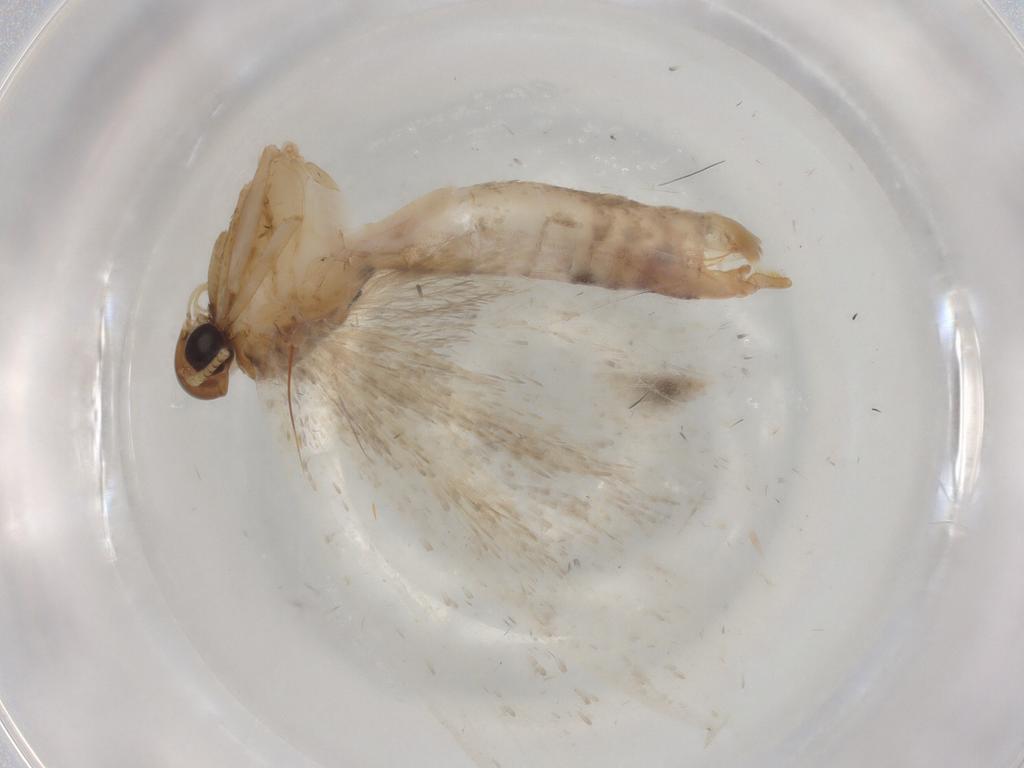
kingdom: Animalia
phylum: Arthropoda
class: Insecta
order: Lepidoptera
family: Gelechiidae
